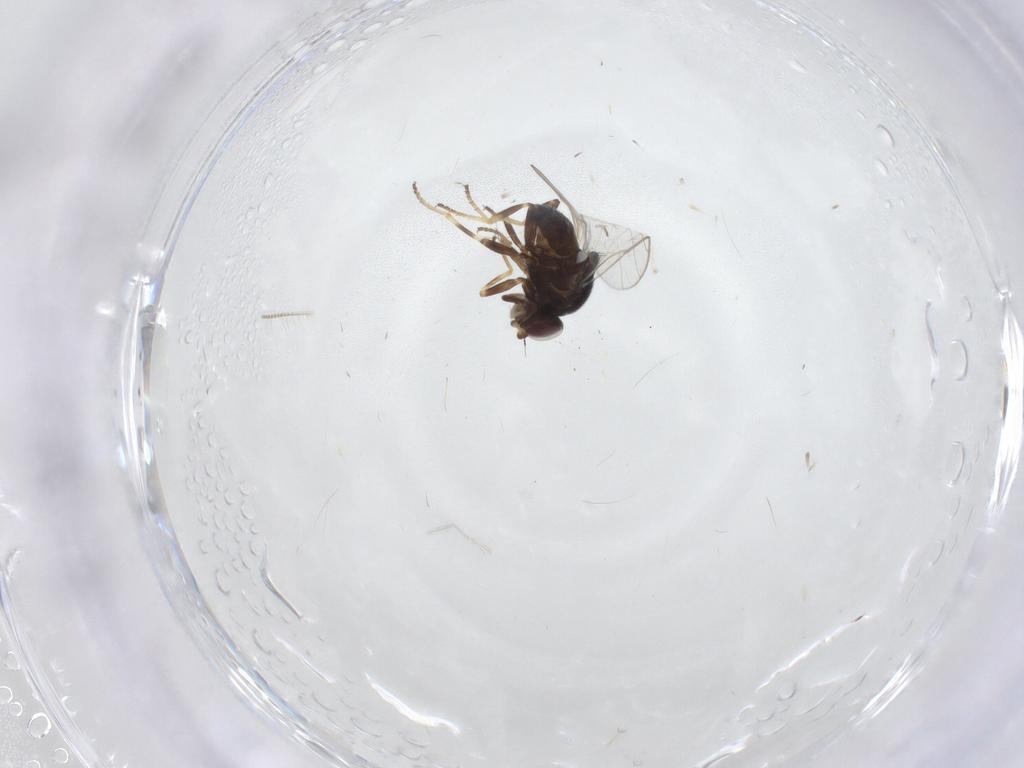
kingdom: Animalia
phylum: Arthropoda
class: Insecta
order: Diptera
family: Chloropidae
